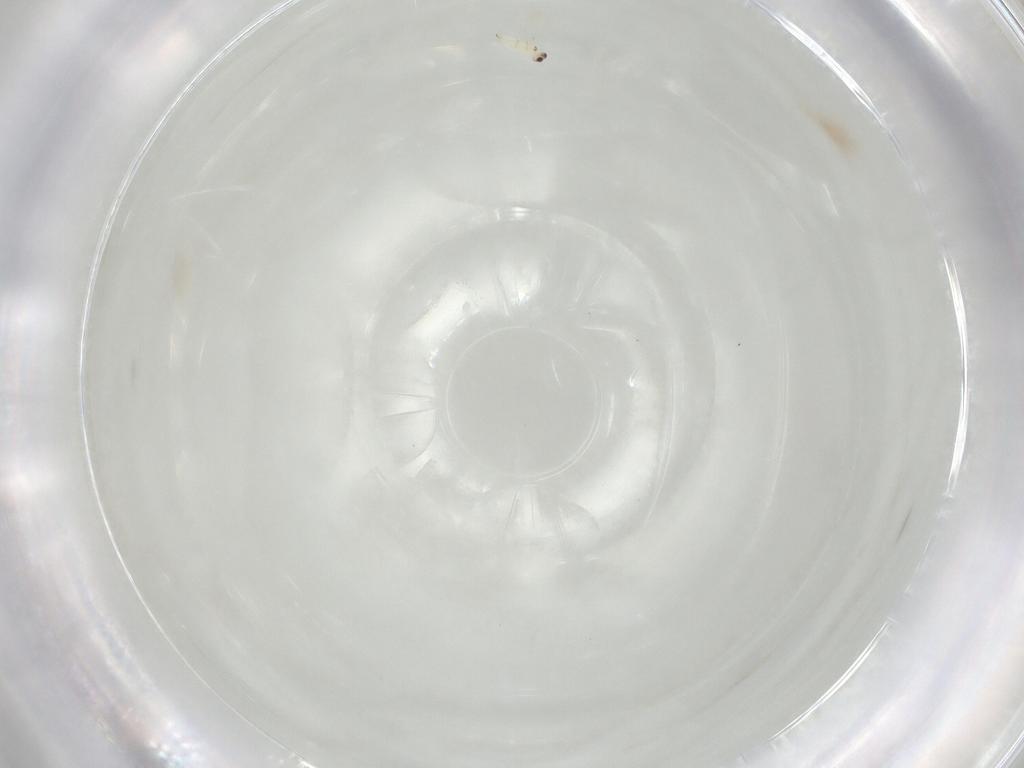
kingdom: Animalia
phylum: Arthropoda
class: Insecta
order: Hymenoptera
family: Mymaridae
